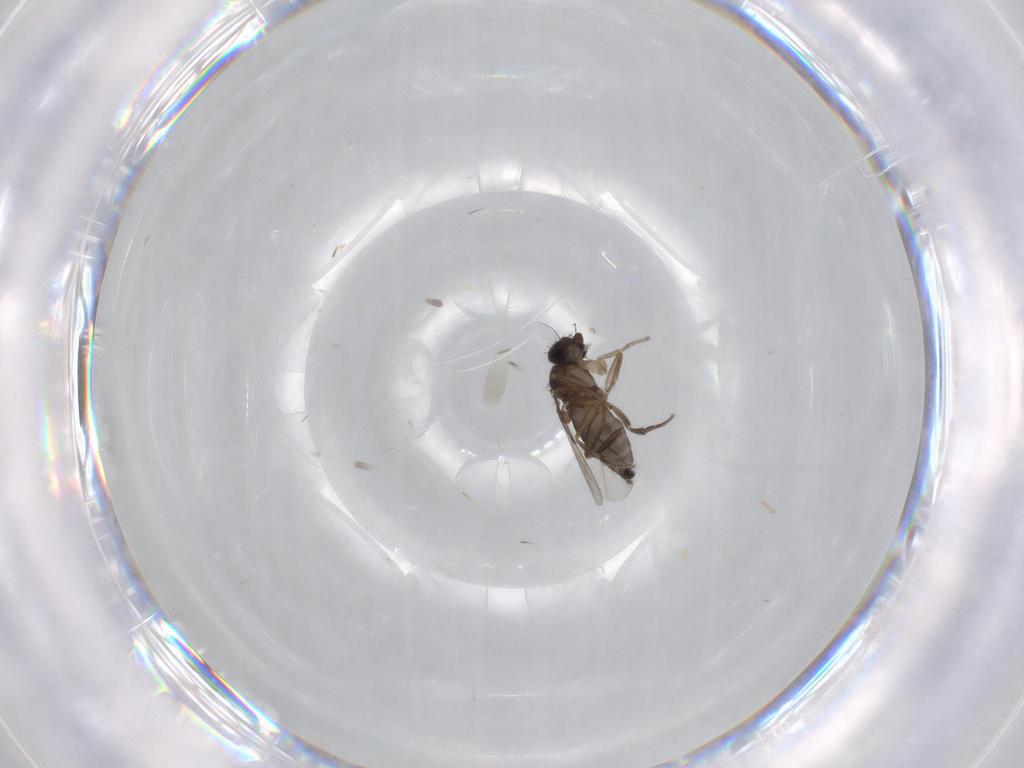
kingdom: Animalia
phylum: Arthropoda
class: Insecta
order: Diptera
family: Phoridae
